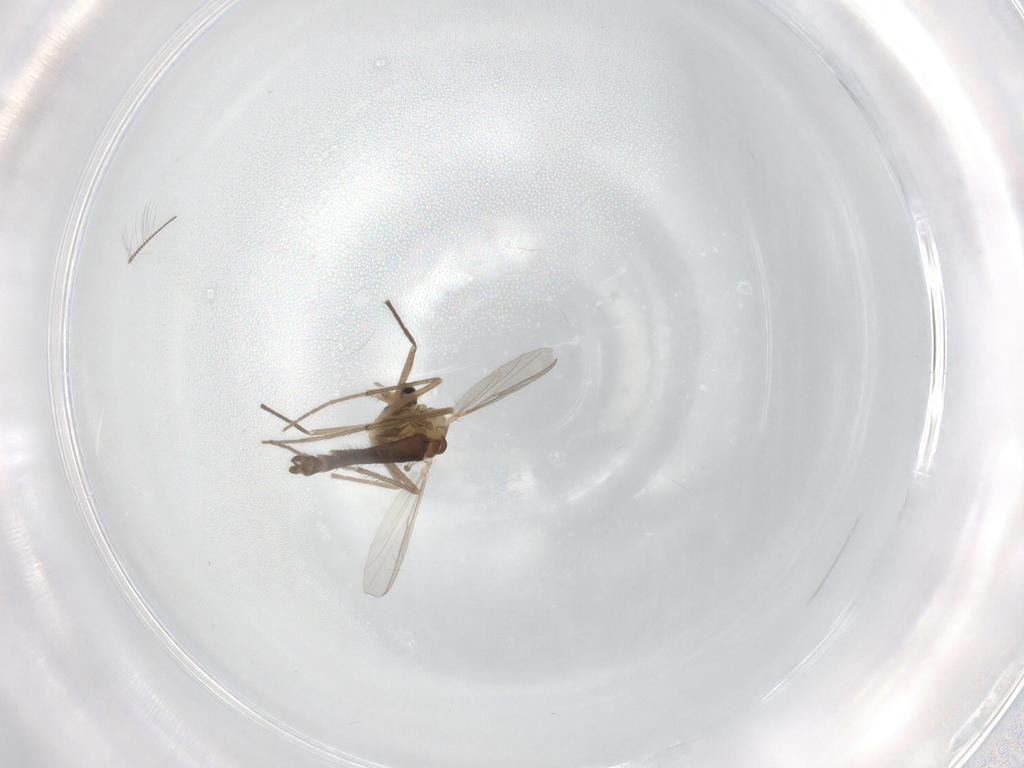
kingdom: Animalia
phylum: Arthropoda
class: Insecta
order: Diptera
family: Chironomidae
